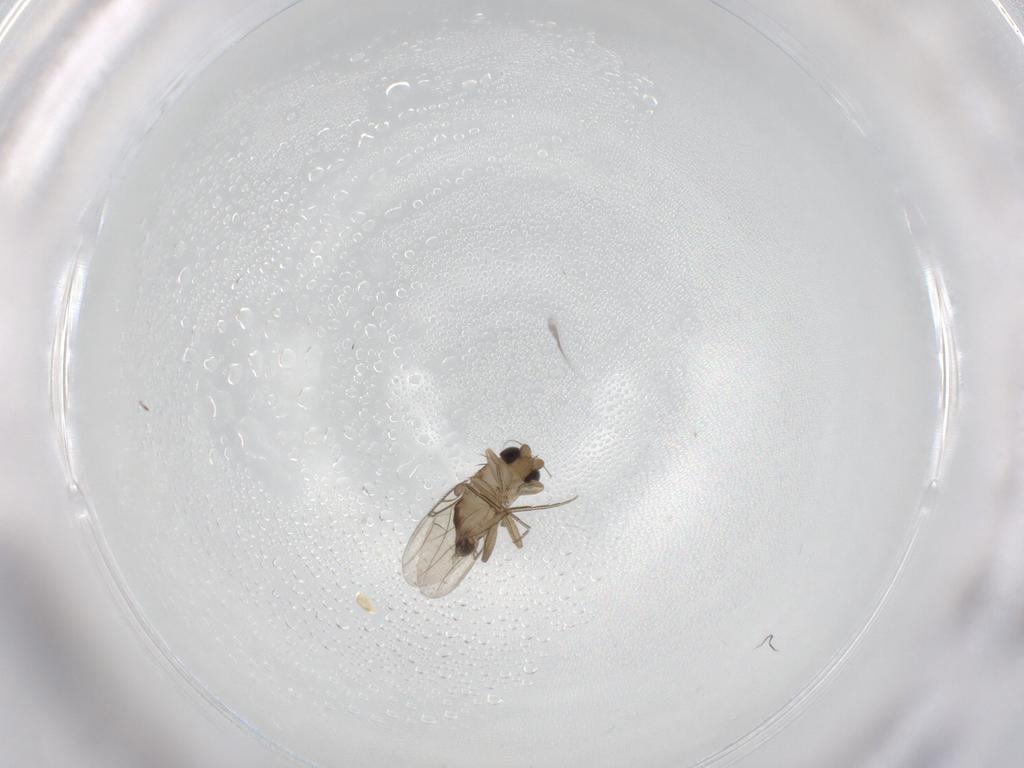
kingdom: Animalia
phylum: Arthropoda
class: Insecta
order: Diptera
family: Phoridae
